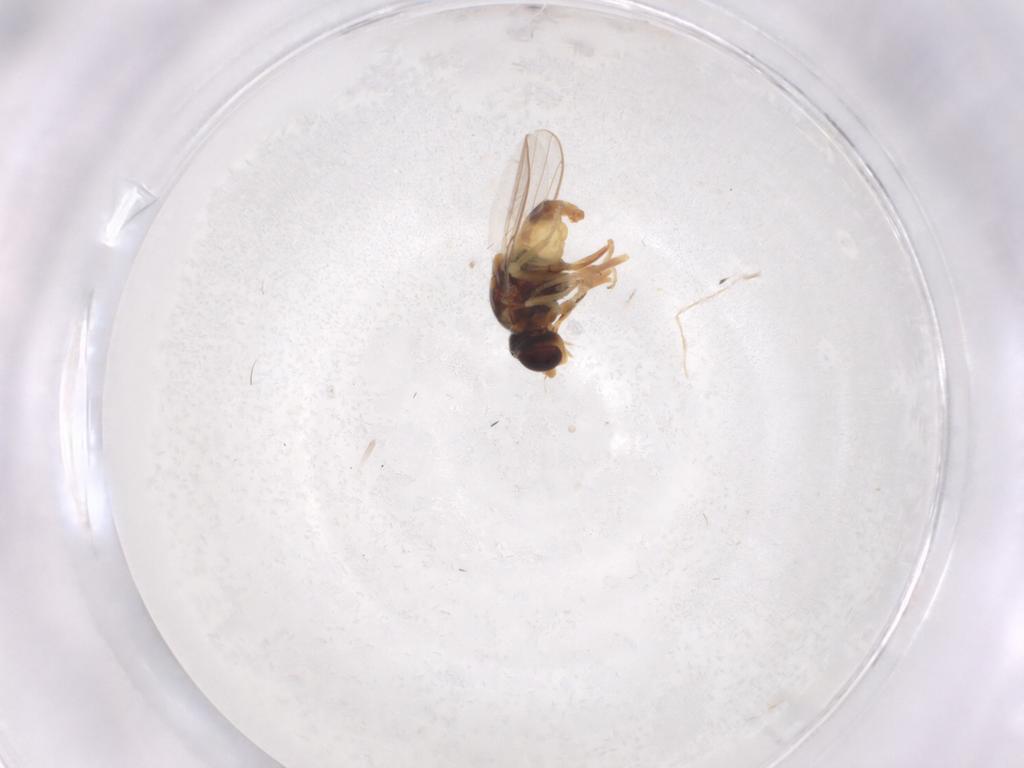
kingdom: Animalia
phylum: Arthropoda
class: Insecta
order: Diptera
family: Chloropidae
